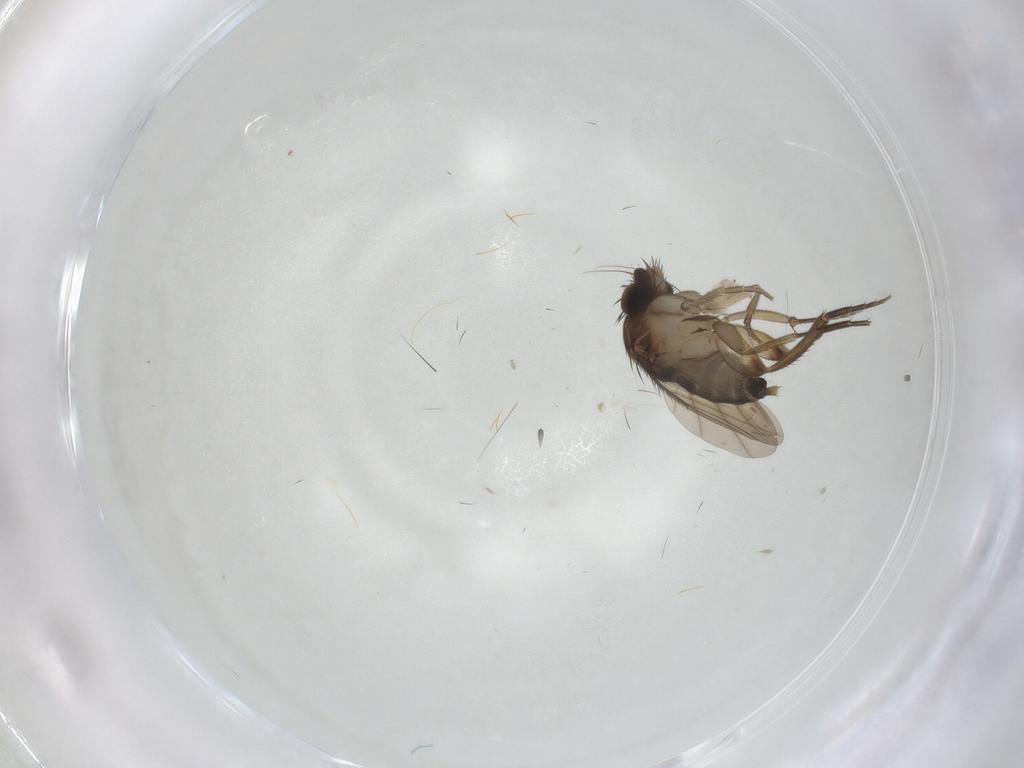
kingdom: Animalia
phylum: Arthropoda
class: Insecta
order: Diptera
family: Phoridae
